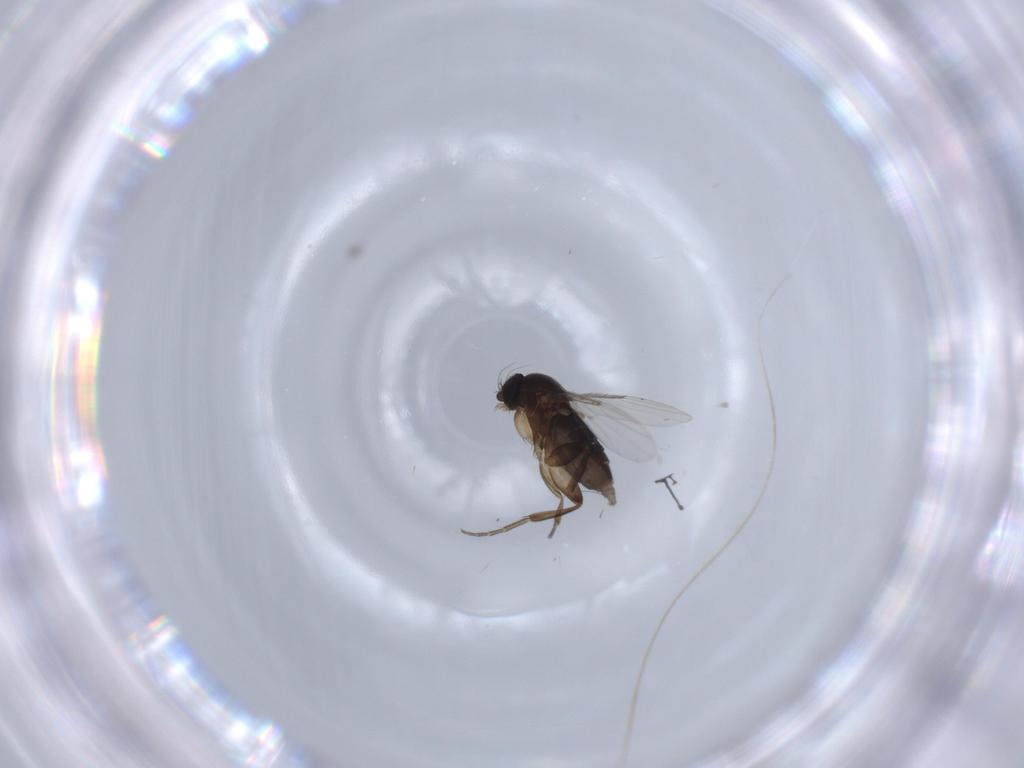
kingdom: Animalia
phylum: Arthropoda
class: Insecta
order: Diptera
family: Phoridae
